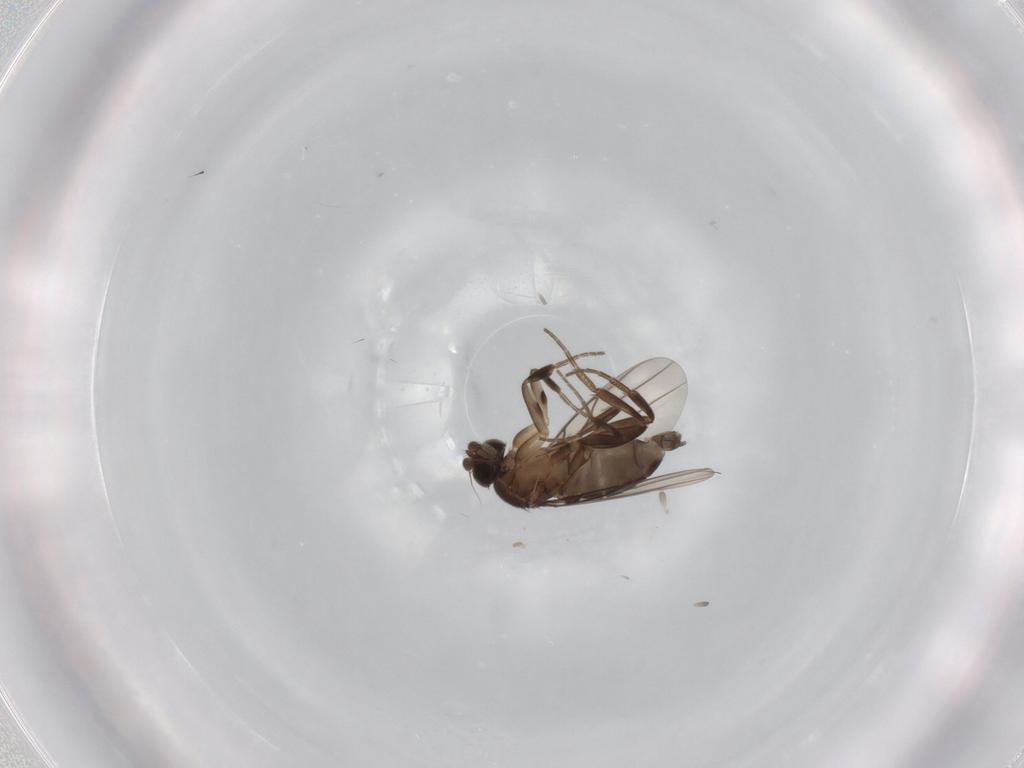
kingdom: Animalia
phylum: Arthropoda
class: Insecta
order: Diptera
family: Phoridae
